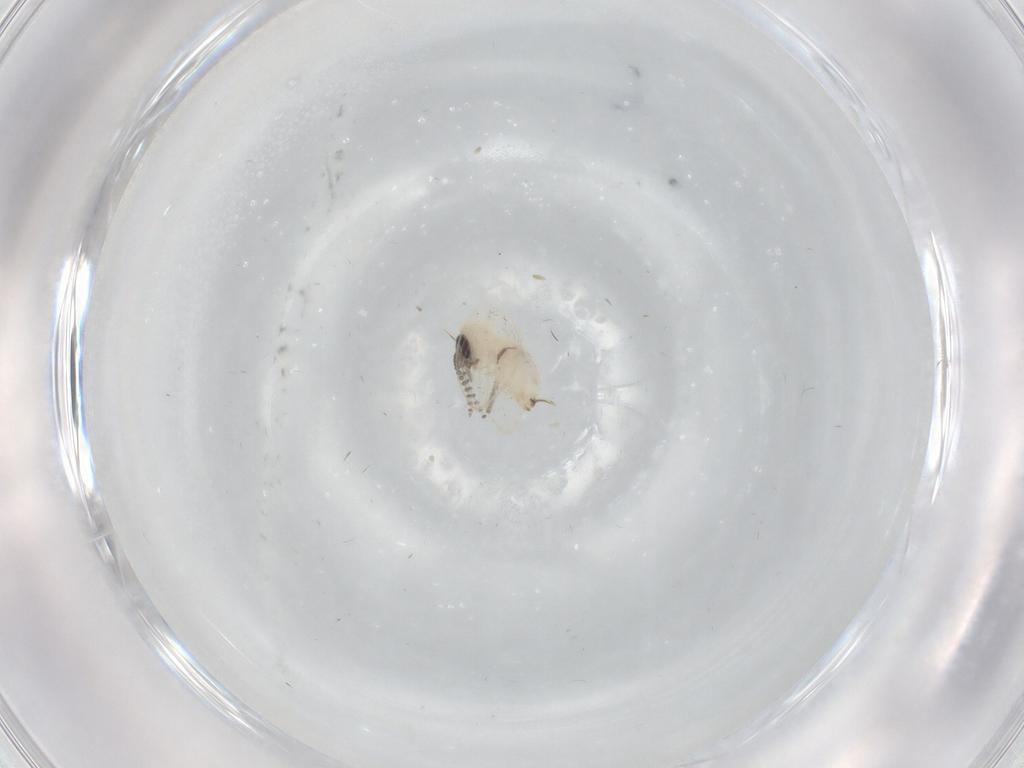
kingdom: Animalia
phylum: Arthropoda
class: Insecta
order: Diptera
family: Psychodidae
